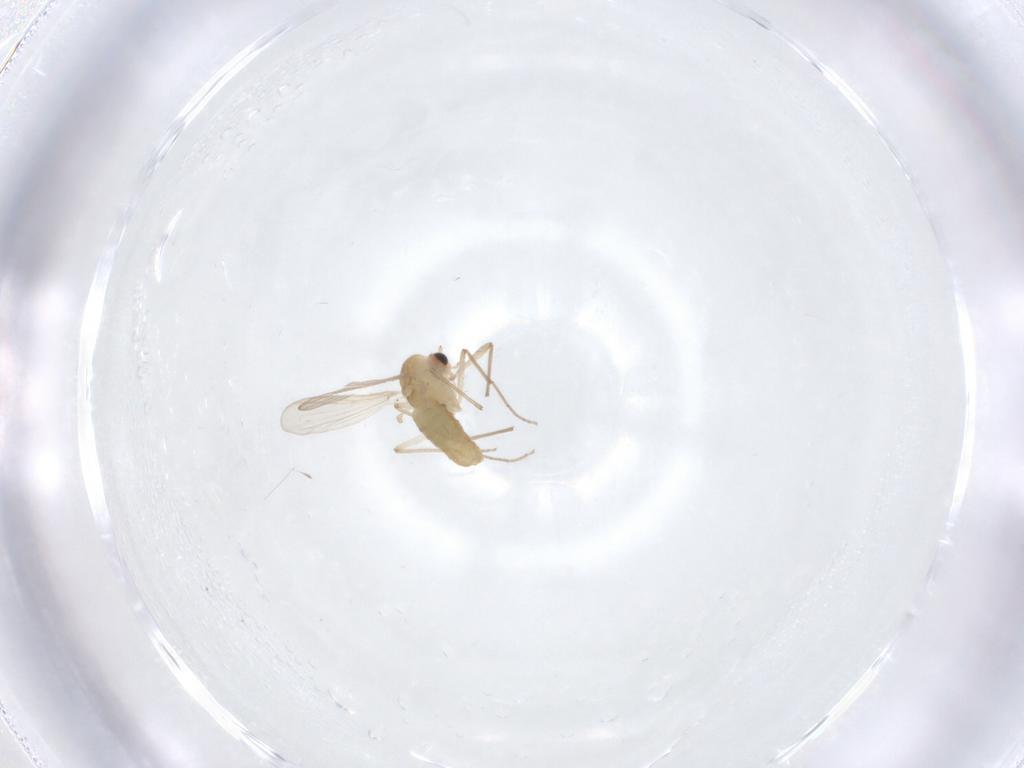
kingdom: Animalia
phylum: Arthropoda
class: Insecta
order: Diptera
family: Chironomidae
